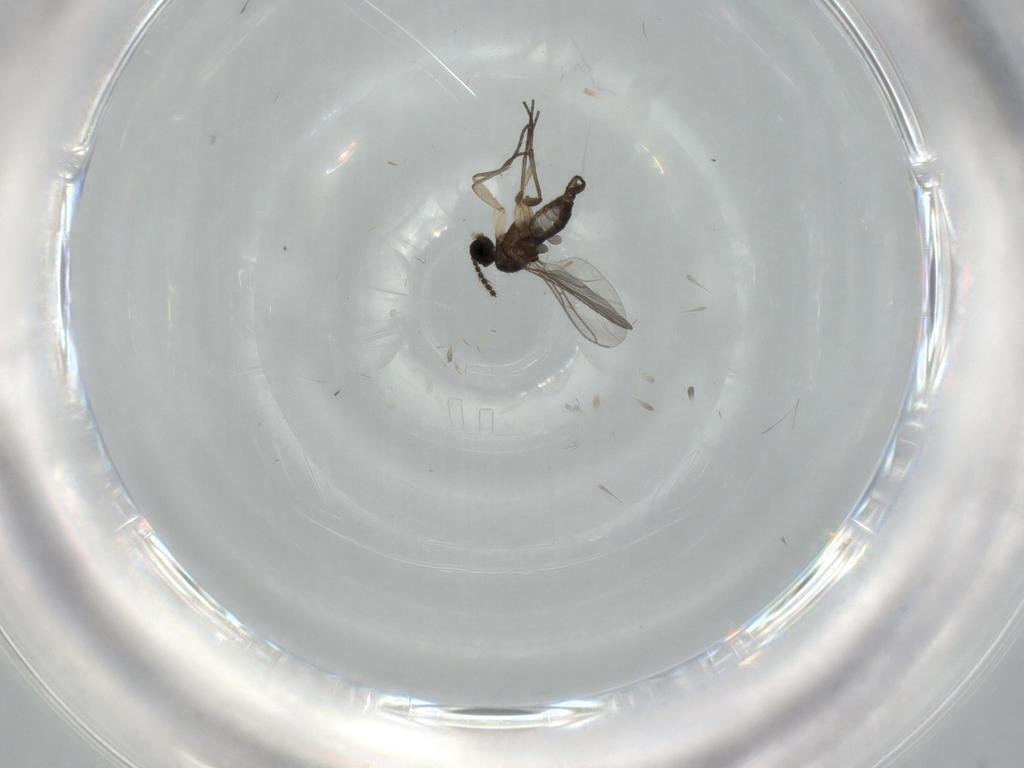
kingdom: Animalia
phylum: Arthropoda
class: Insecta
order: Diptera
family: Sciaridae
